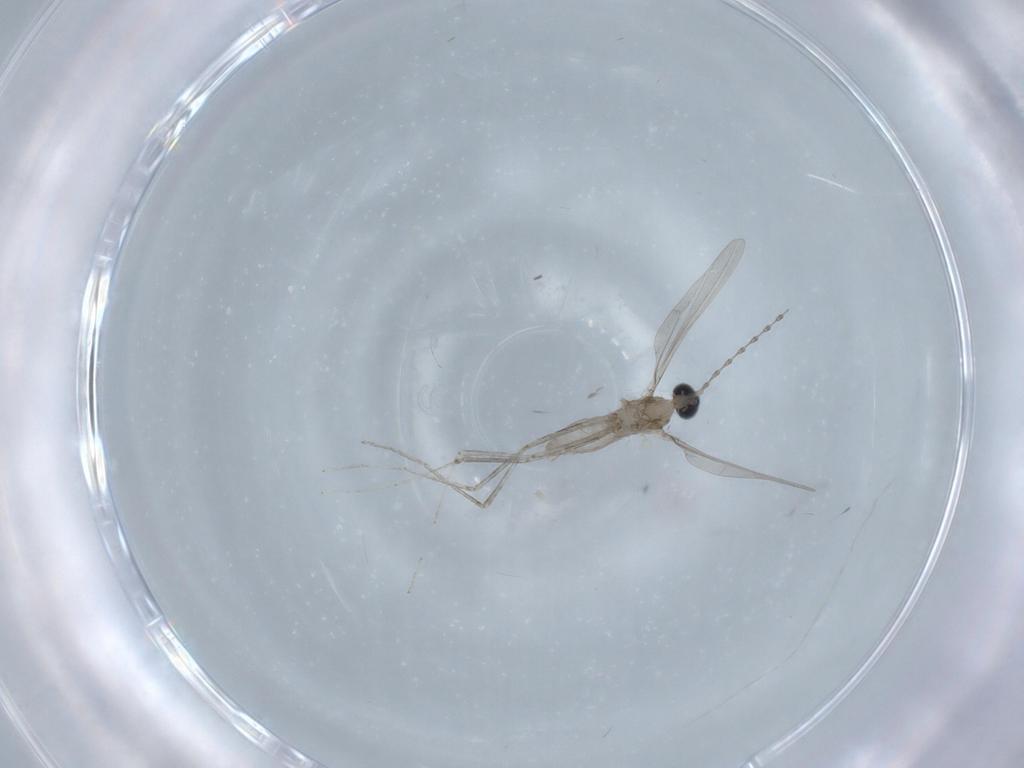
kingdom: Animalia
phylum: Arthropoda
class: Insecta
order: Diptera
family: Cecidomyiidae
